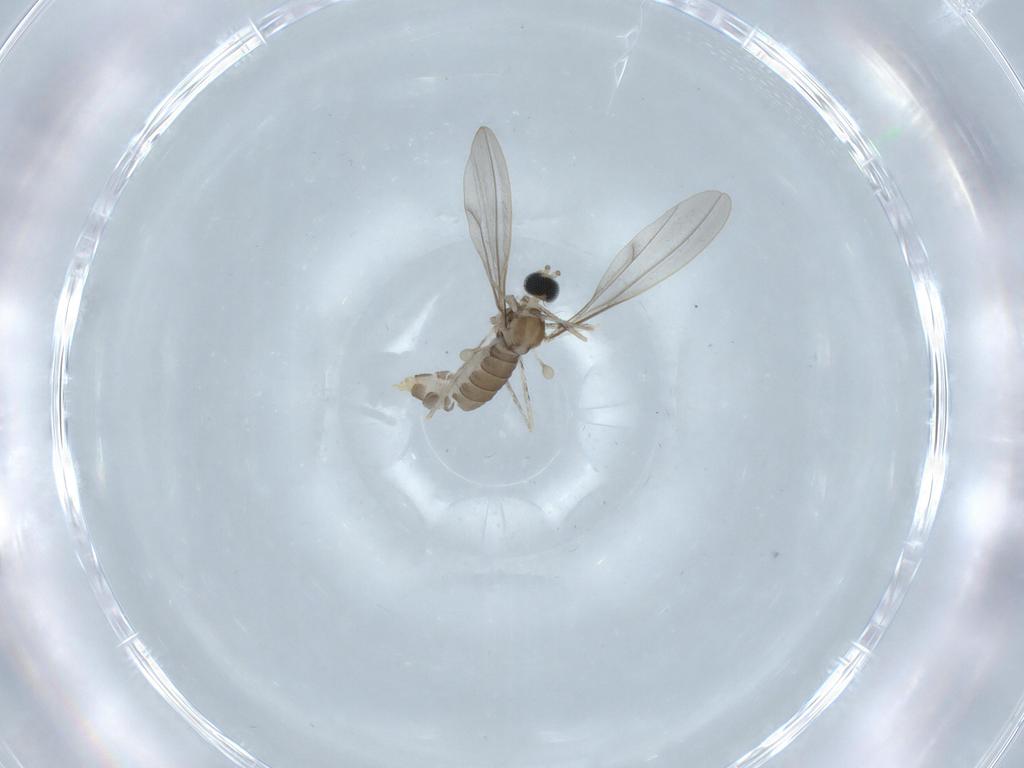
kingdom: Animalia
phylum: Arthropoda
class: Insecta
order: Diptera
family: Cecidomyiidae
